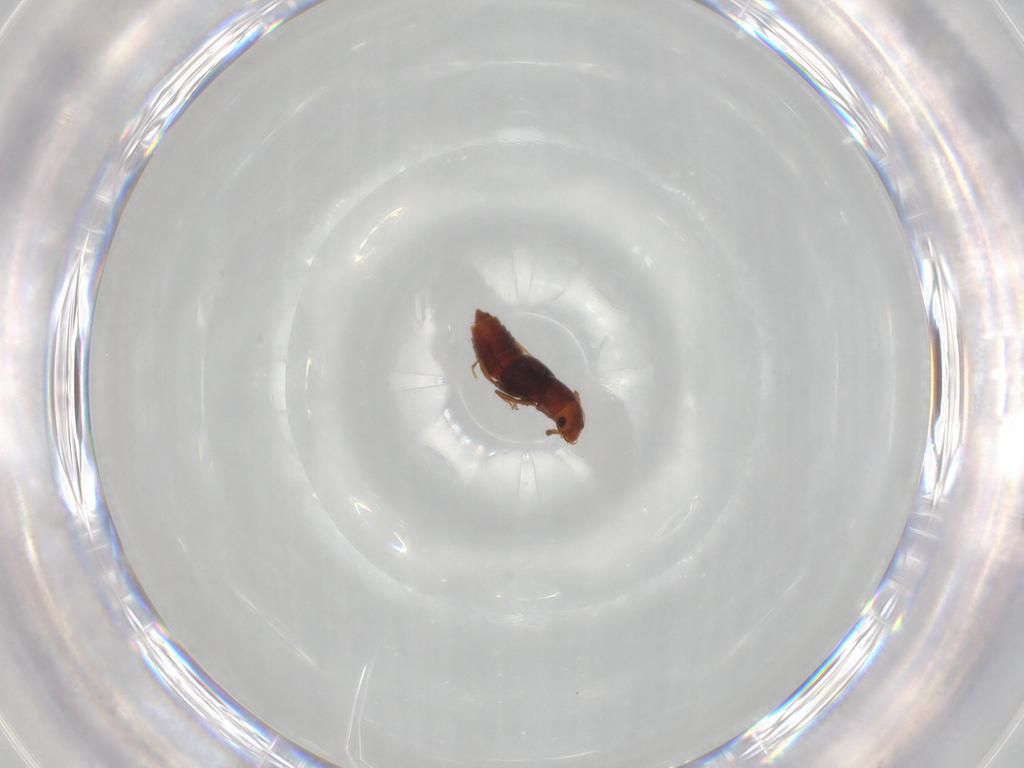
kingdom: Animalia
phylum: Arthropoda
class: Insecta
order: Coleoptera
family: Staphylinidae
